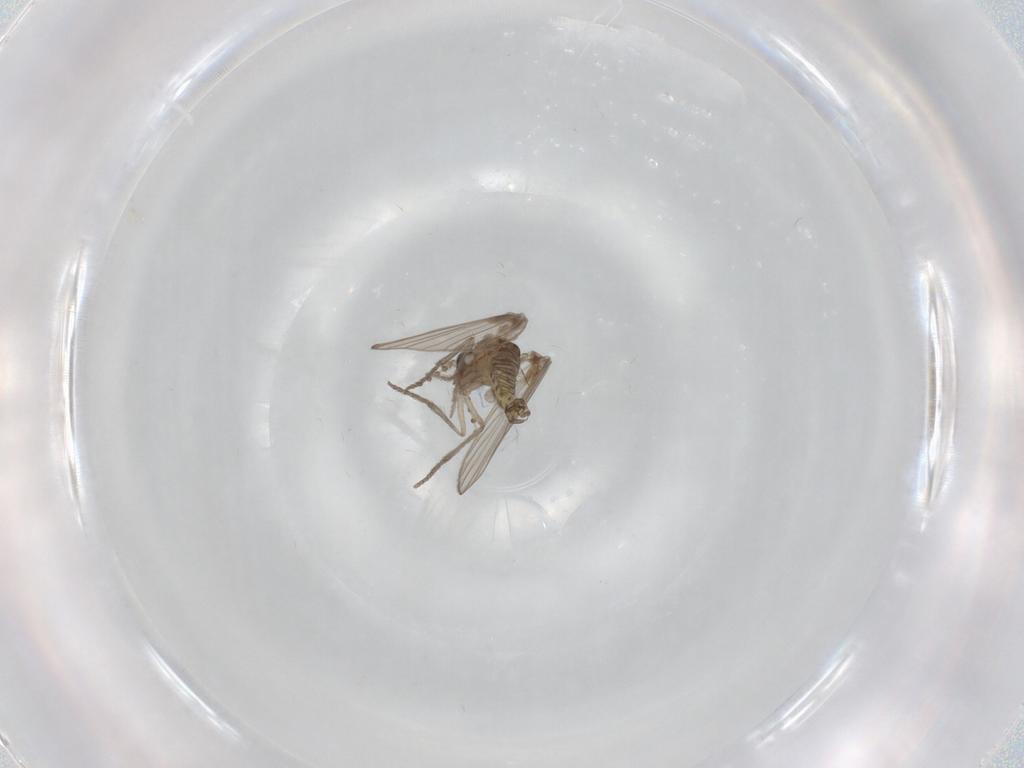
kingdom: Animalia
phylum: Arthropoda
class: Insecta
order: Diptera
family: Psychodidae
